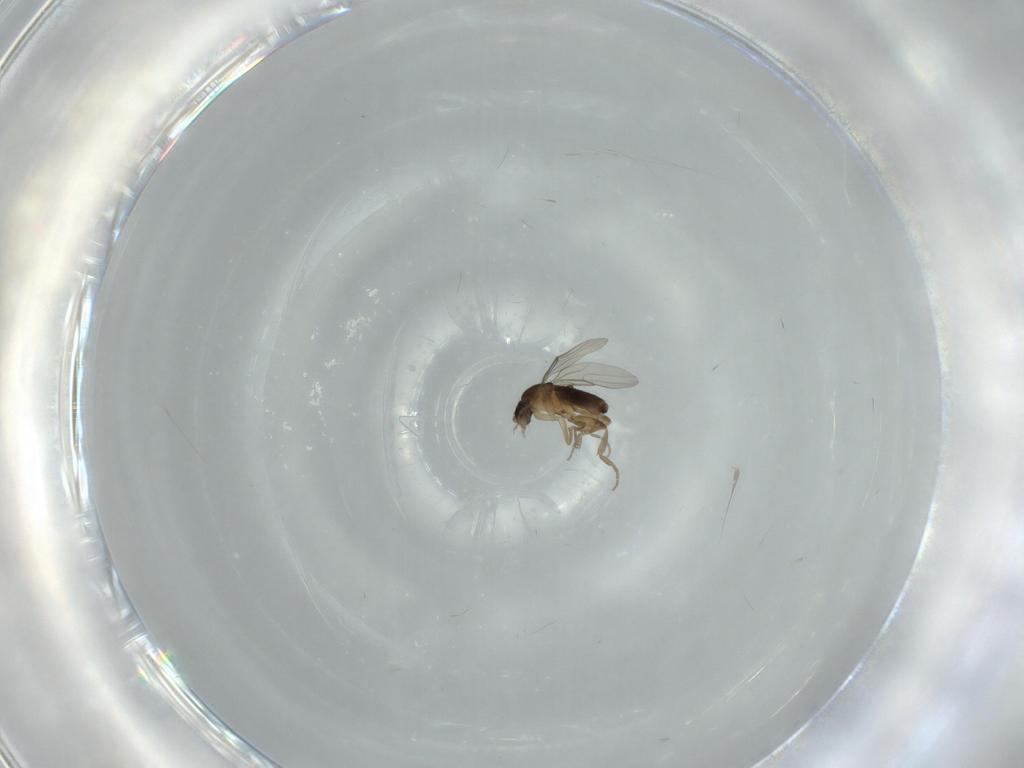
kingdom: Animalia
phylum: Arthropoda
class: Insecta
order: Diptera
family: Phoridae
